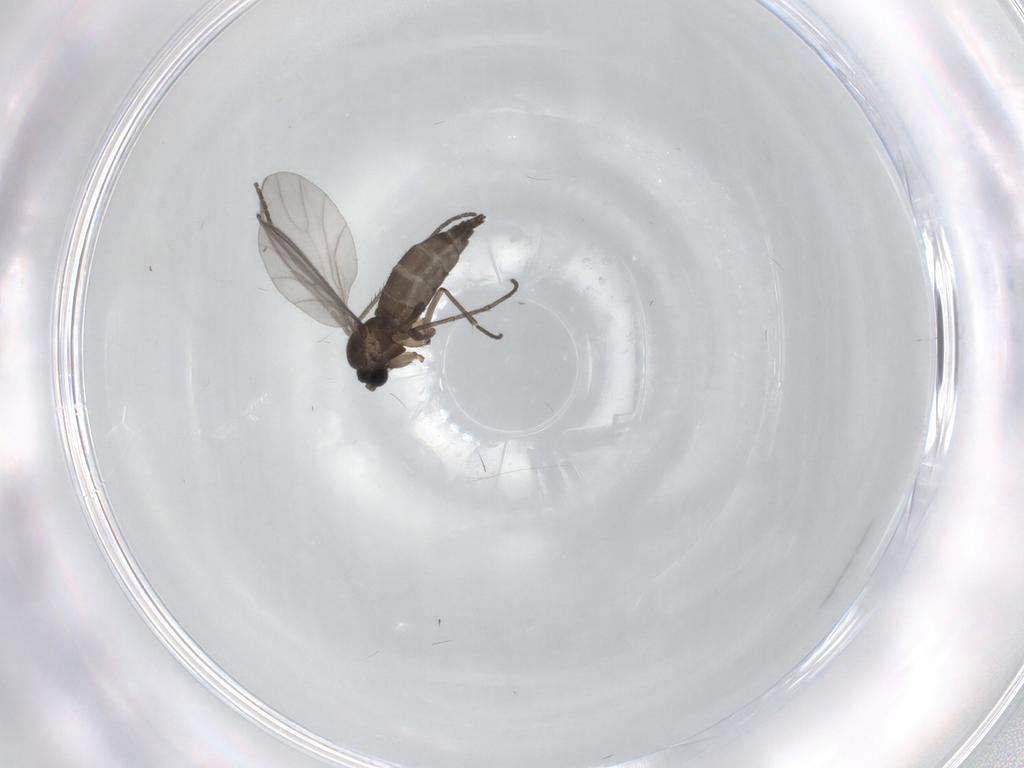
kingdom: Animalia
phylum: Arthropoda
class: Insecta
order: Diptera
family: Sciaridae
